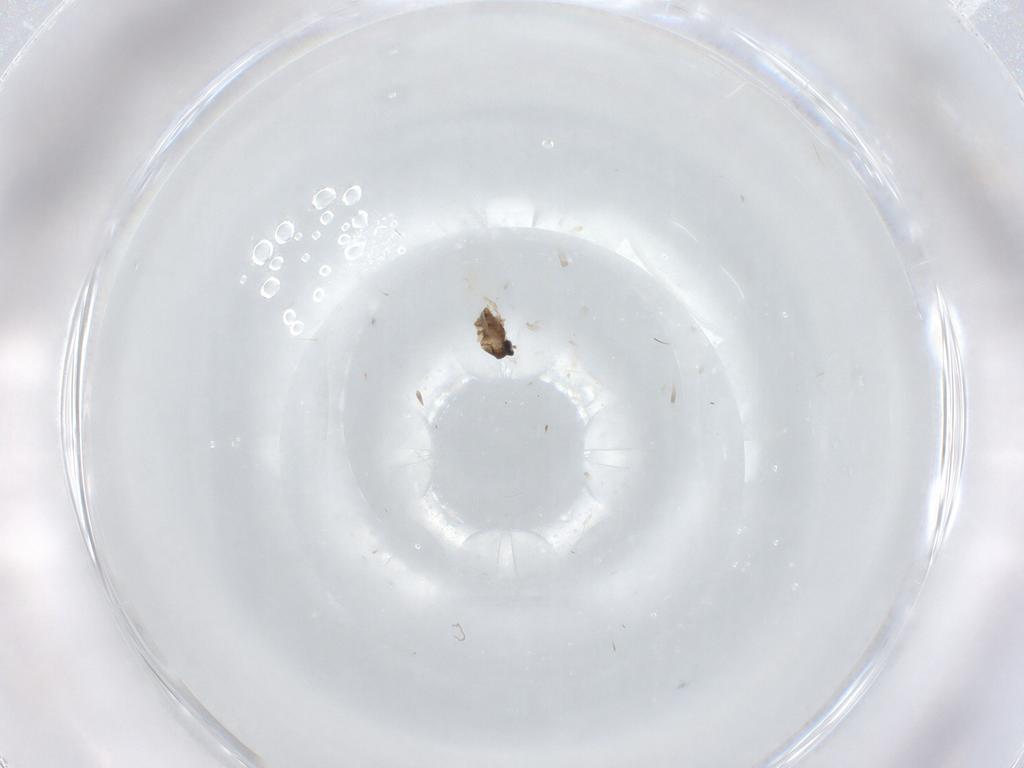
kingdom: Animalia
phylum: Arthropoda
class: Insecta
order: Diptera
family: Cecidomyiidae
